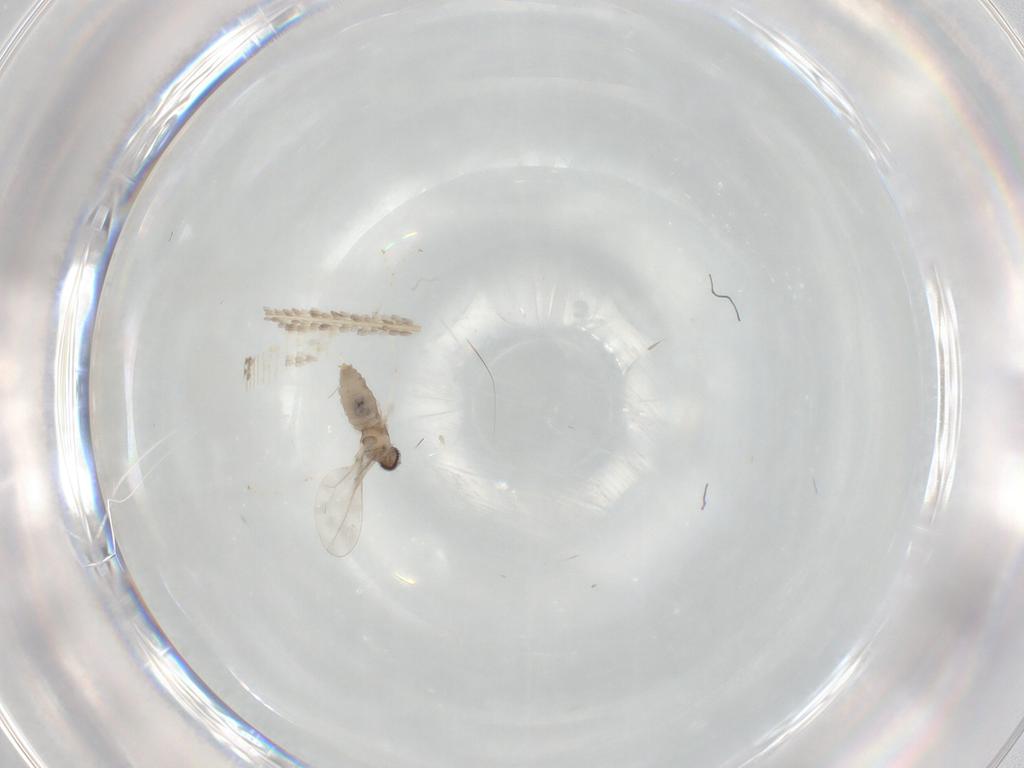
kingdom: Animalia
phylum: Arthropoda
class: Insecta
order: Diptera
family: Cecidomyiidae
